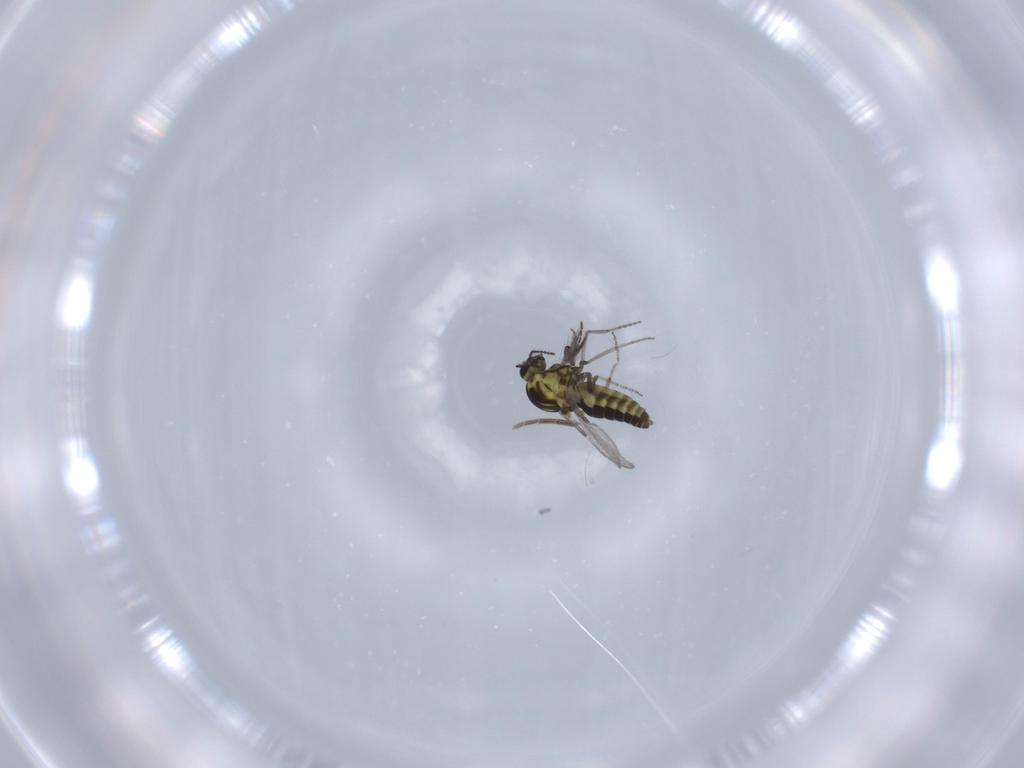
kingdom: Animalia
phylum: Arthropoda
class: Insecta
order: Diptera
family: Ceratopogonidae
